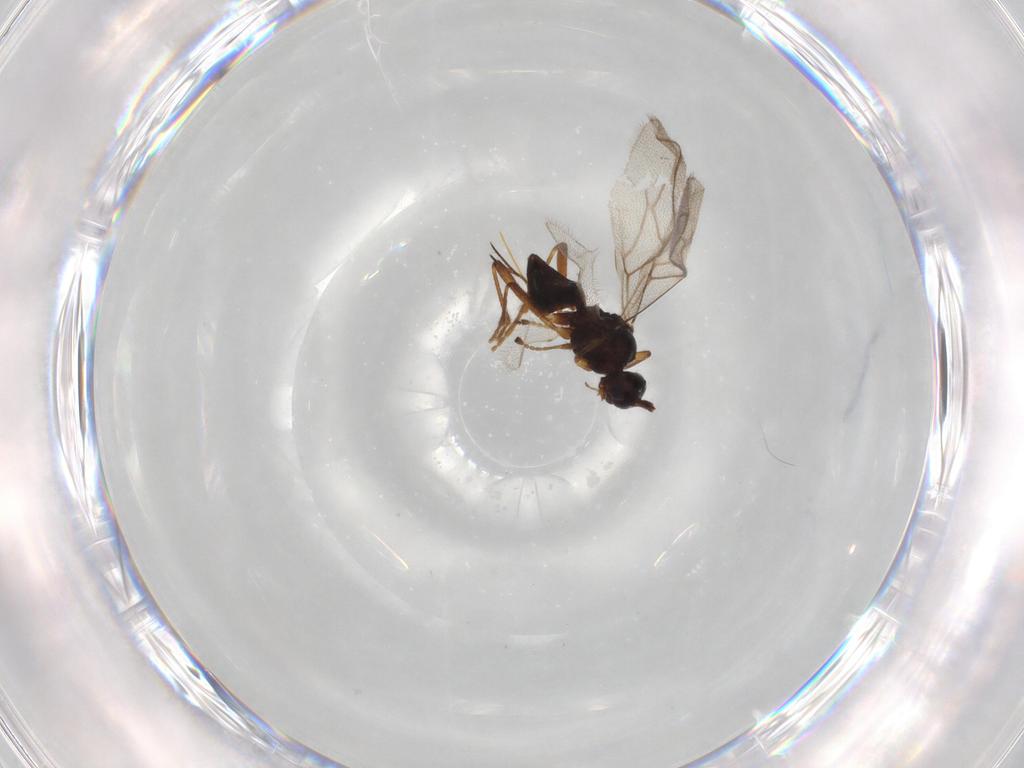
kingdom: Animalia
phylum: Arthropoda
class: Insecta
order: Hymenoptera
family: Braconidae
